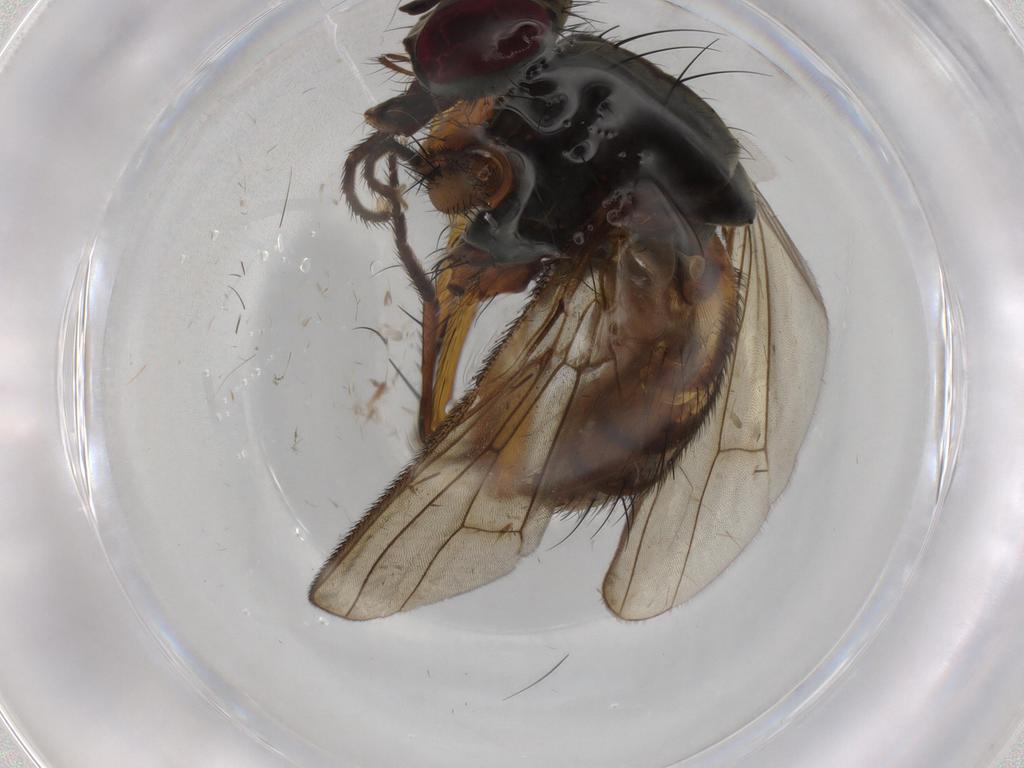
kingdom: Animalia
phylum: Arthropoda
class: Insecta
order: Diptera
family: Muscidae
